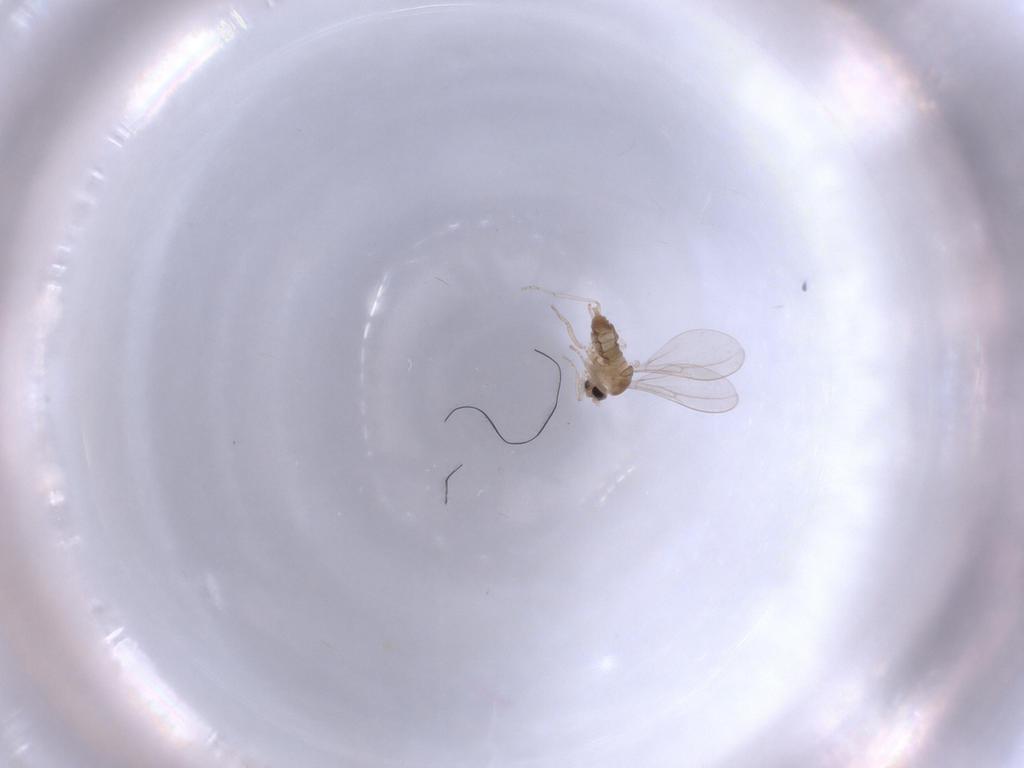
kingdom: Animalia
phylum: Arthropoda
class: Insecta
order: Diptera
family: Cecidomyiidae
